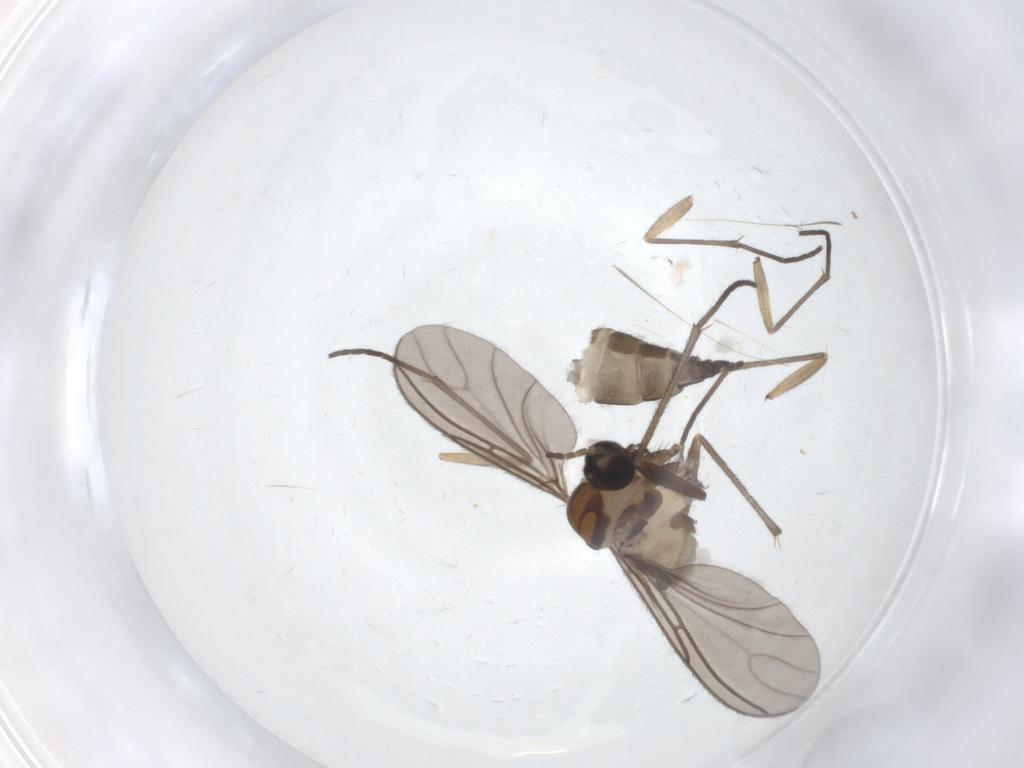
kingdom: Animalia
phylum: Arthropoda
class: Insecta
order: Diptera
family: Sciaridae
